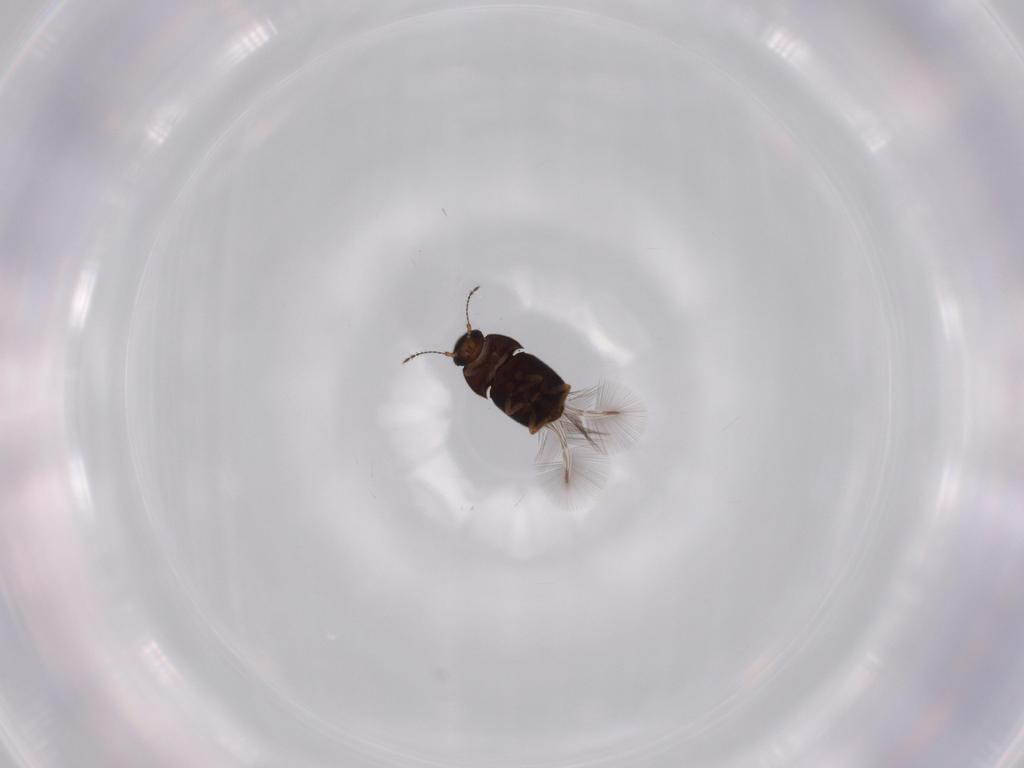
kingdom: Animalia
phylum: Arthropoda
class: Insecta
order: Coleoptera
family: Ptiliidae
